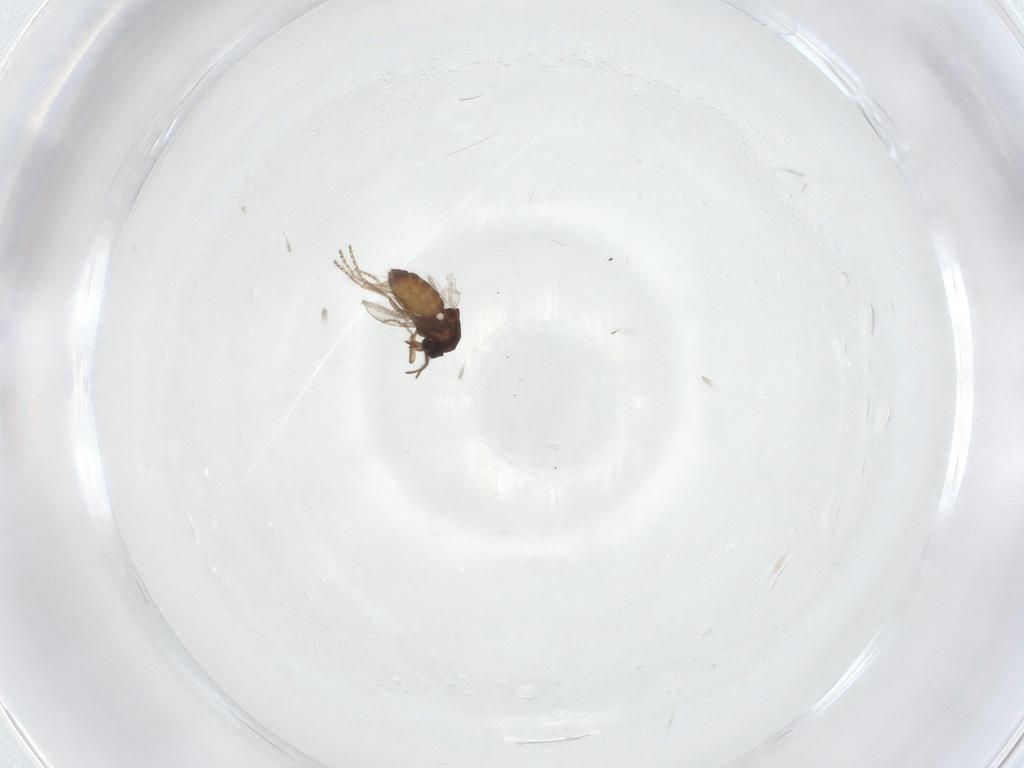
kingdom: Animalia
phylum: Arthropoda
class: Insecta
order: Diptera
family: Ceratopogonidae
